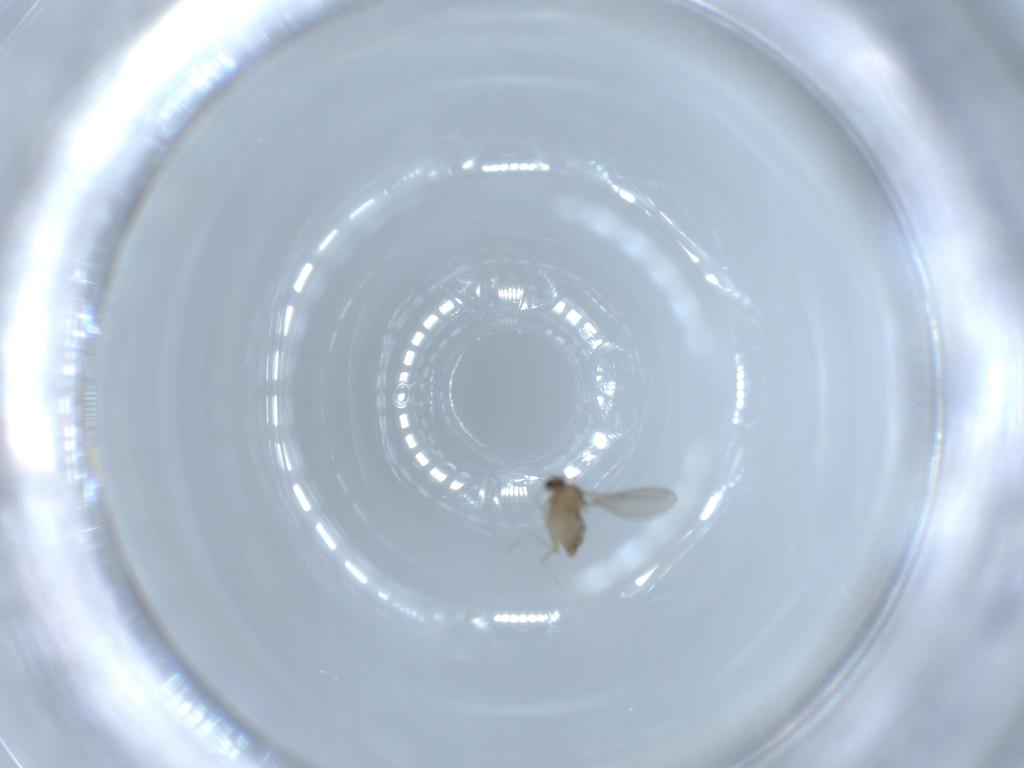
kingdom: Animalia
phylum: Arthropoda
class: Insecta
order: Diptera
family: Cecidomyiidae
